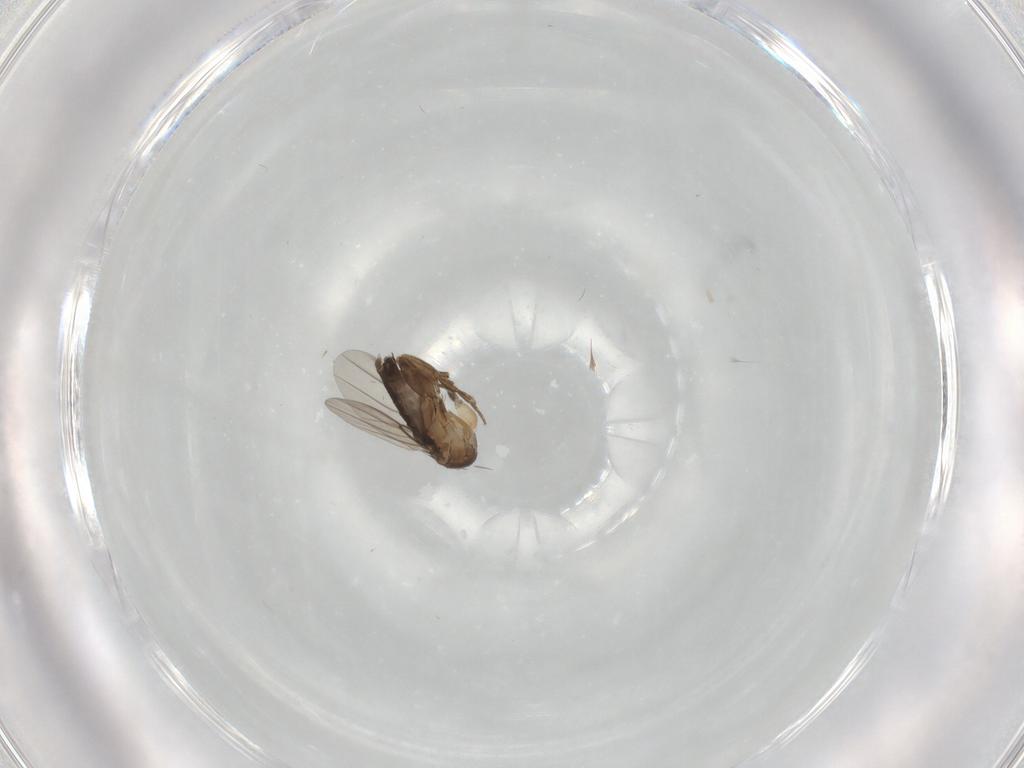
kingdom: Animalia
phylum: Arthropoda
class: Insecta
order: Diptera
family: Phoridae
